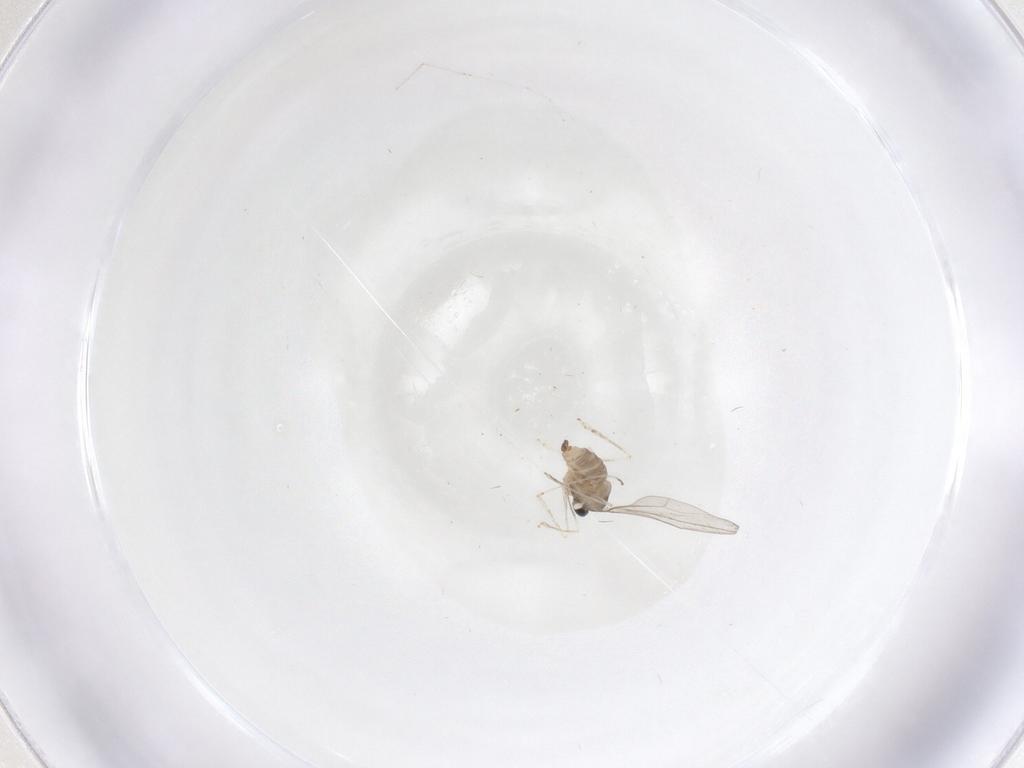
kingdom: Animalia
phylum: Arthropoda
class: Insecta
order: Diptera
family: Cecidomyiidae
